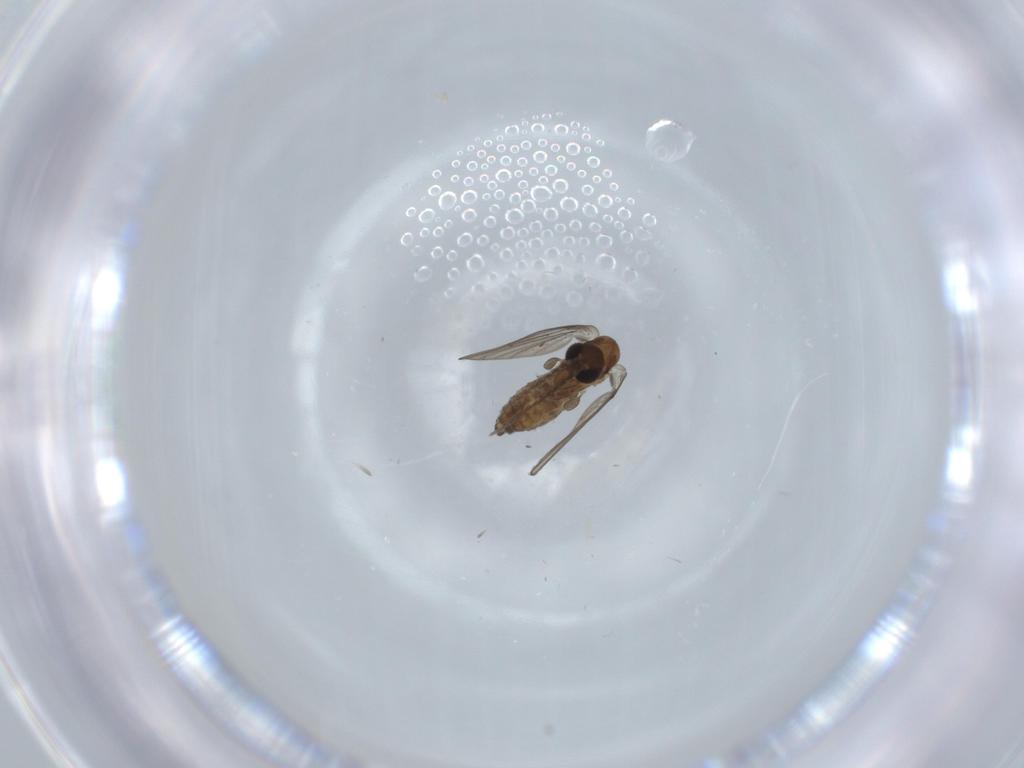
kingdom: Animalia
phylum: Arthropoda
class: Insecta
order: Diptera
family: Psychodidae
